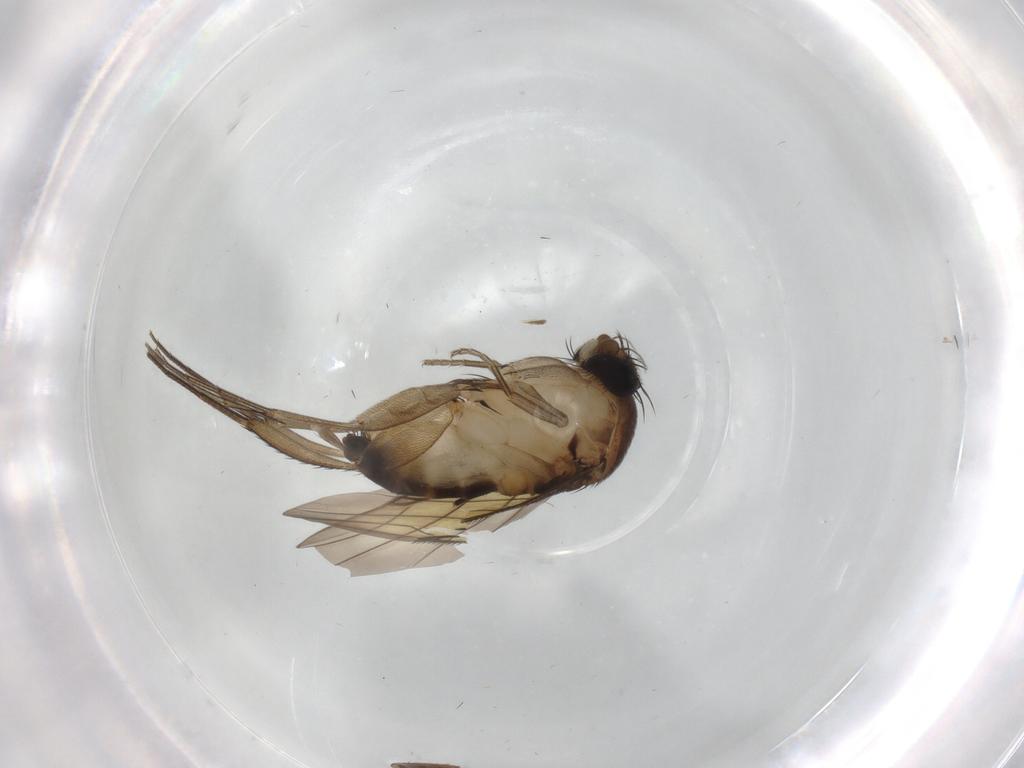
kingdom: Animalia
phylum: Arthropoda
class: Insecta
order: Diptera
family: Phoridae
